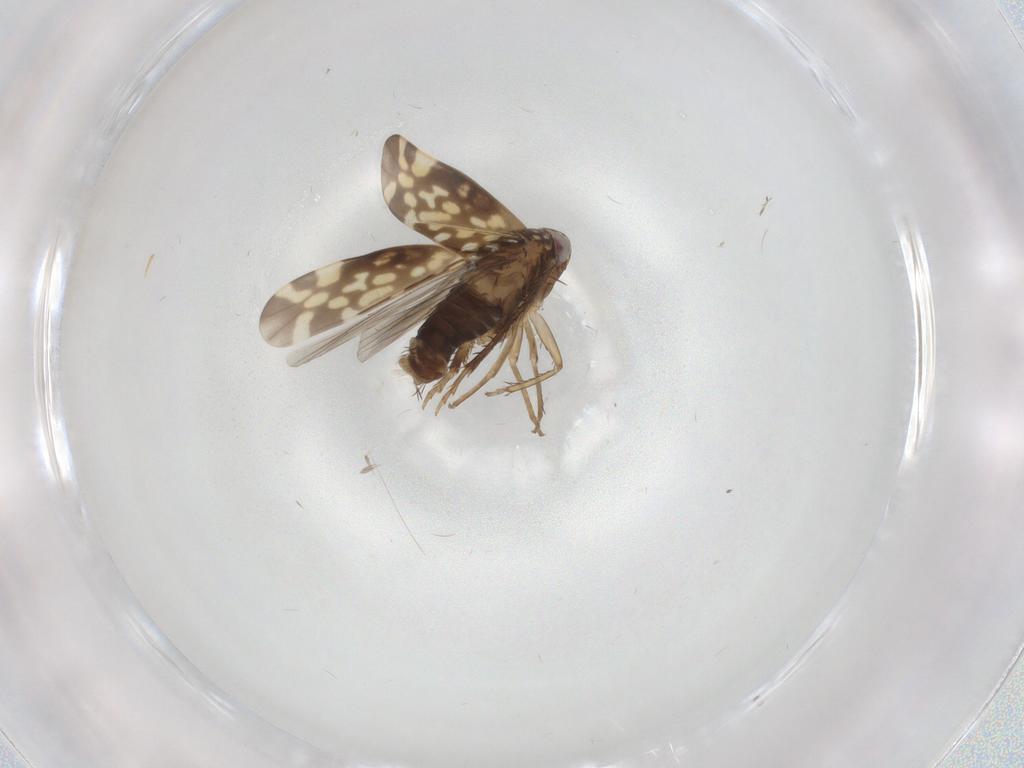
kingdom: Animalia
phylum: Arthropoda
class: Insecta
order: Hemiptera
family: Cicadellidae
